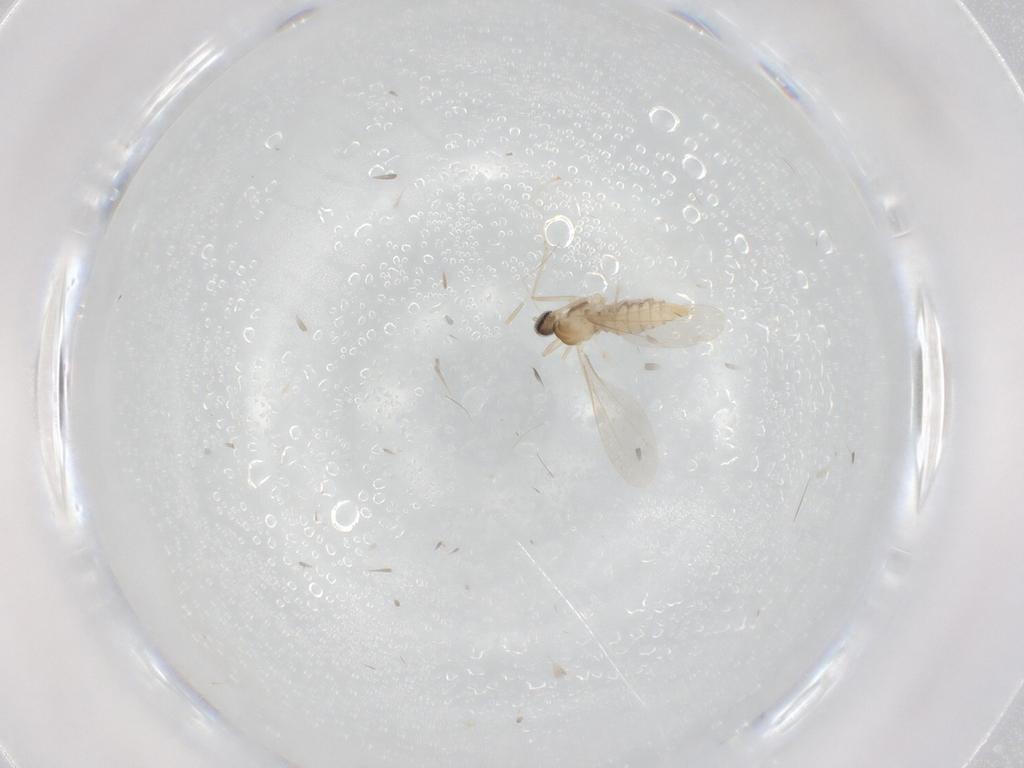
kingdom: Animalia
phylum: Arthropoda
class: Insecta
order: Diptera
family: Cecidomyiidae
